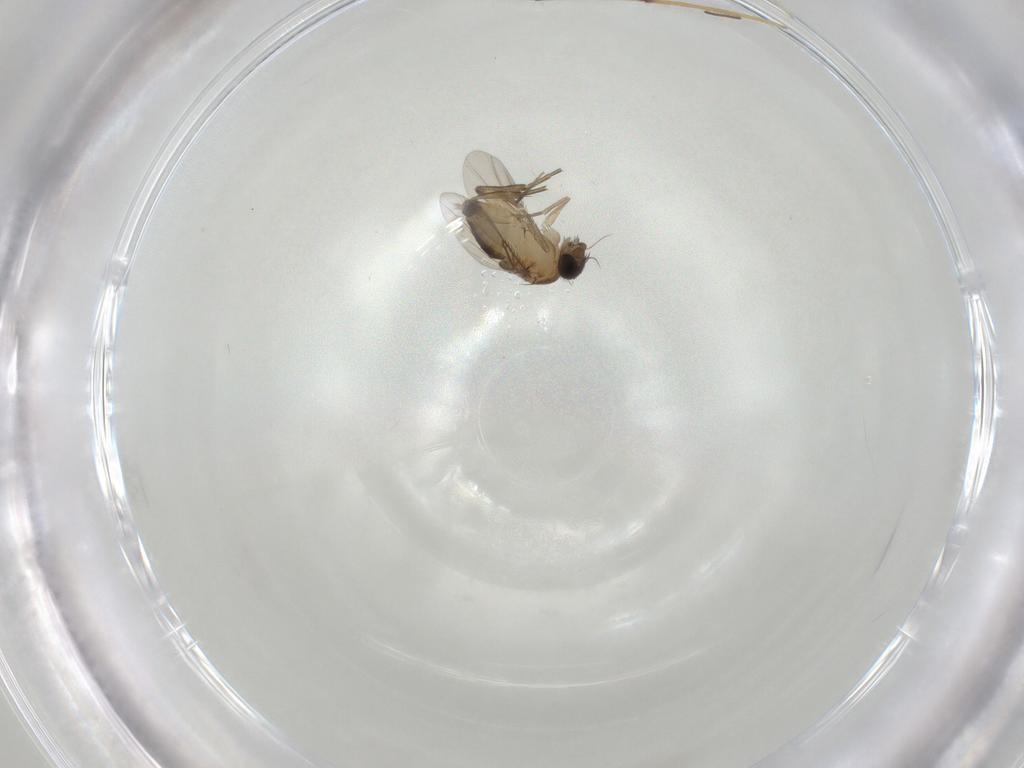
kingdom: Animalia
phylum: Arthropoda
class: Insecta
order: Diptera
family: Phoridae
